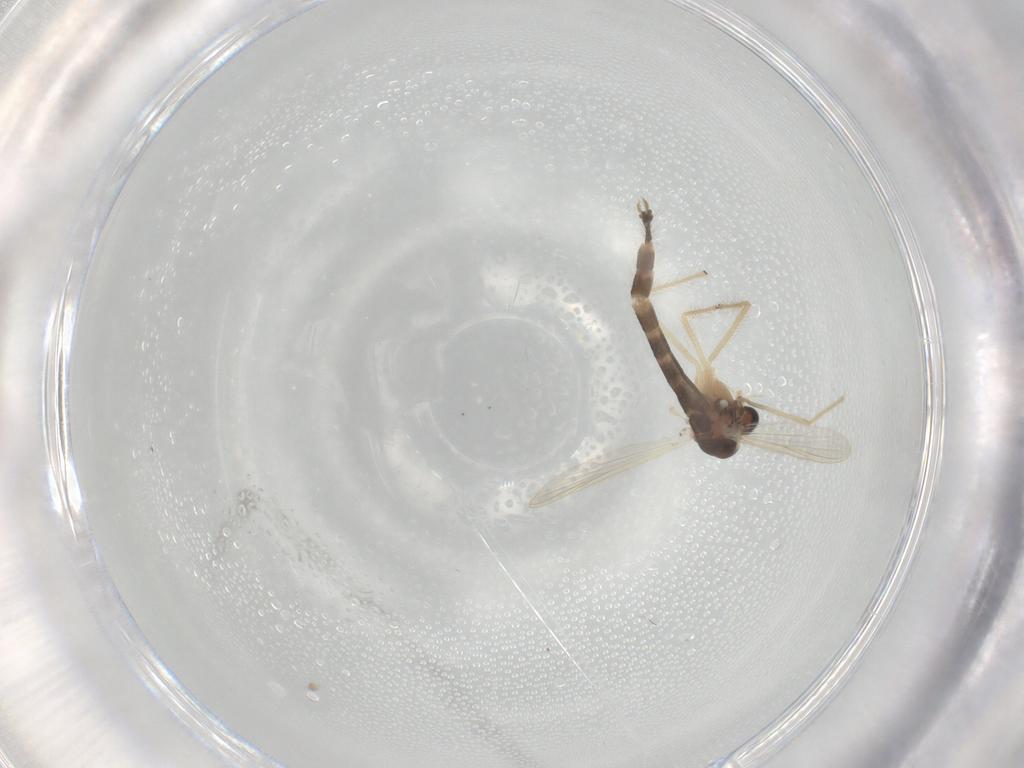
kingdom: Animalia
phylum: Arthropoda
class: Insecta
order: Diptera
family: Chironomidae
